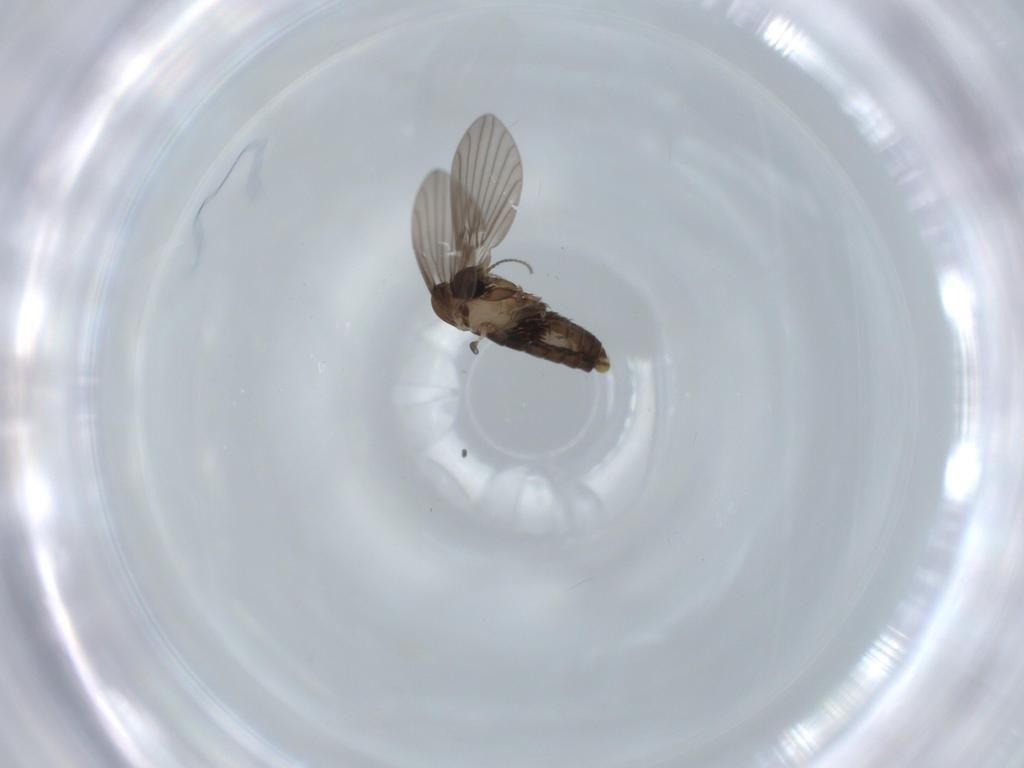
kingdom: Animalia
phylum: Arthropoda
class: Insecta
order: Diptera
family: Psychodidae
